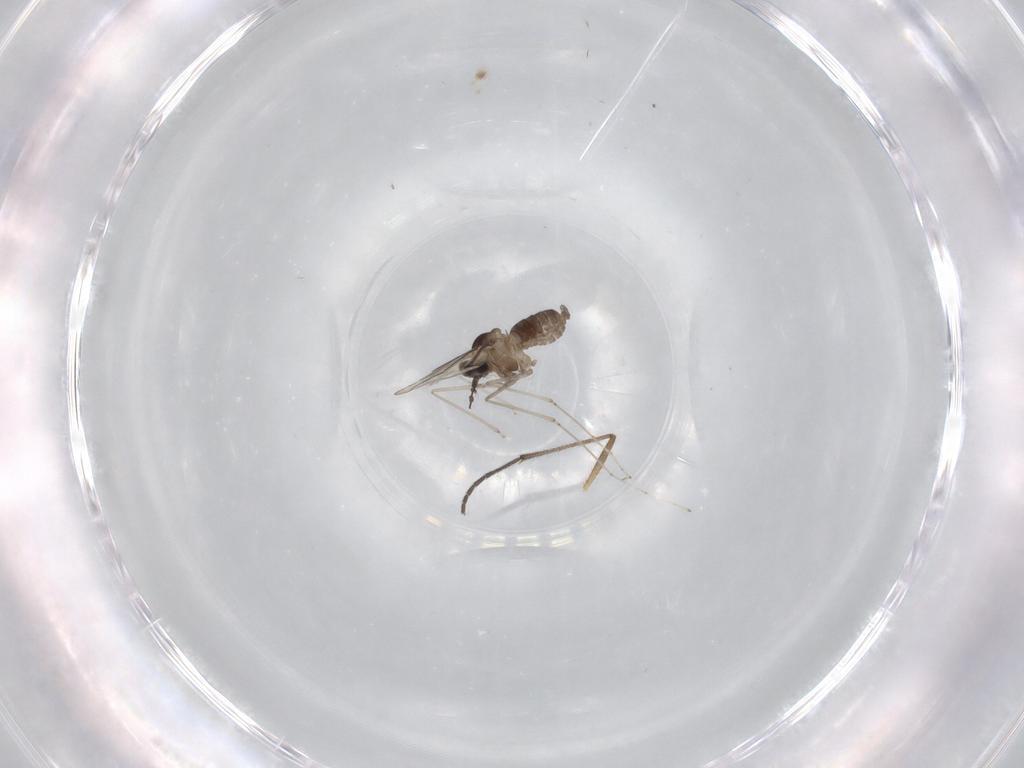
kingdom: Animalia
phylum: Arthropoda
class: Insecta
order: Diptera
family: Cecidomyiidae
